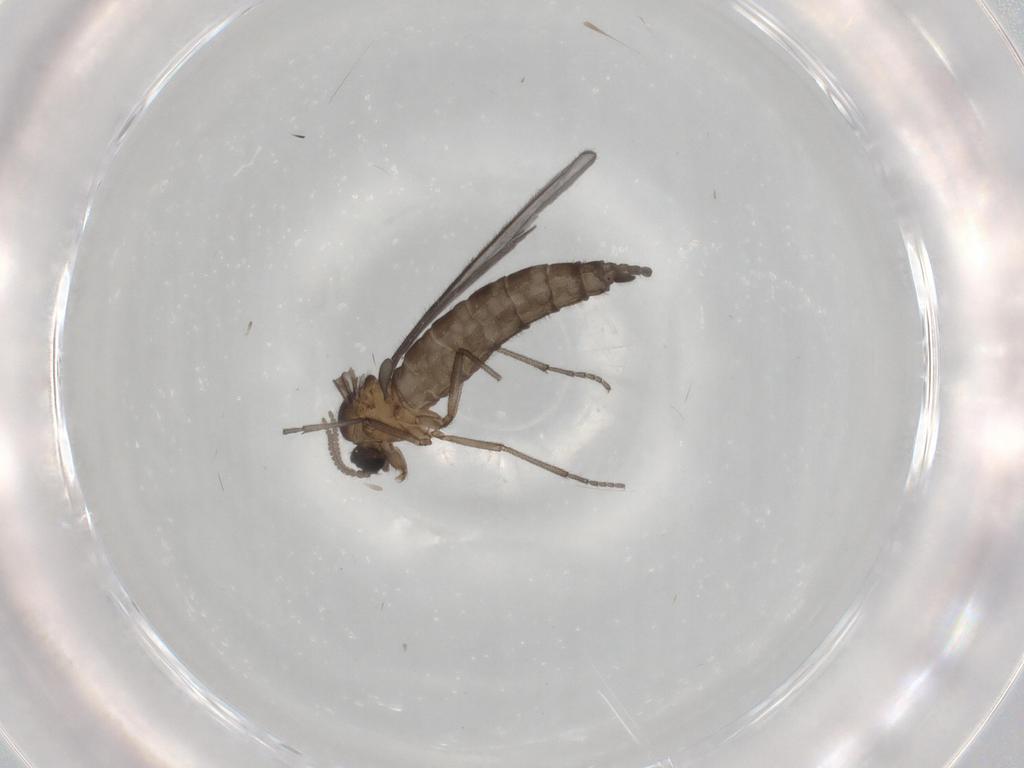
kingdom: Animalia
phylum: Arthropoda
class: Insecta
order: Diptera
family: Sciaridae
